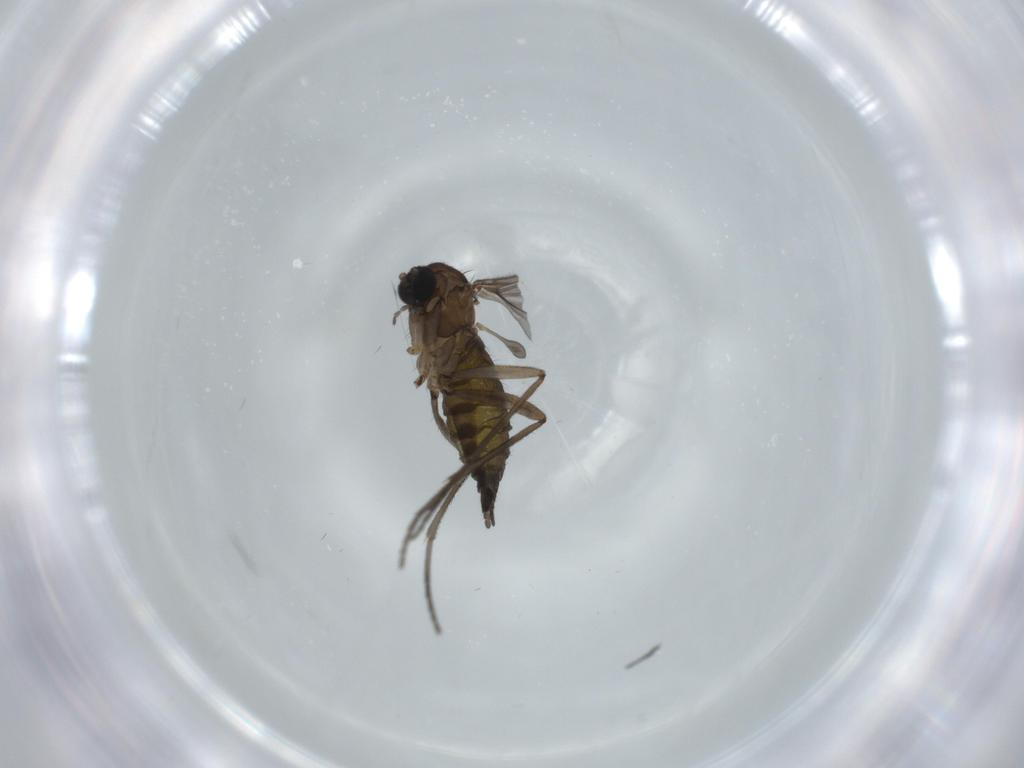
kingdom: Animalia
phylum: Arthropoda
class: Insecta
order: Diptera
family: Sciaridae
